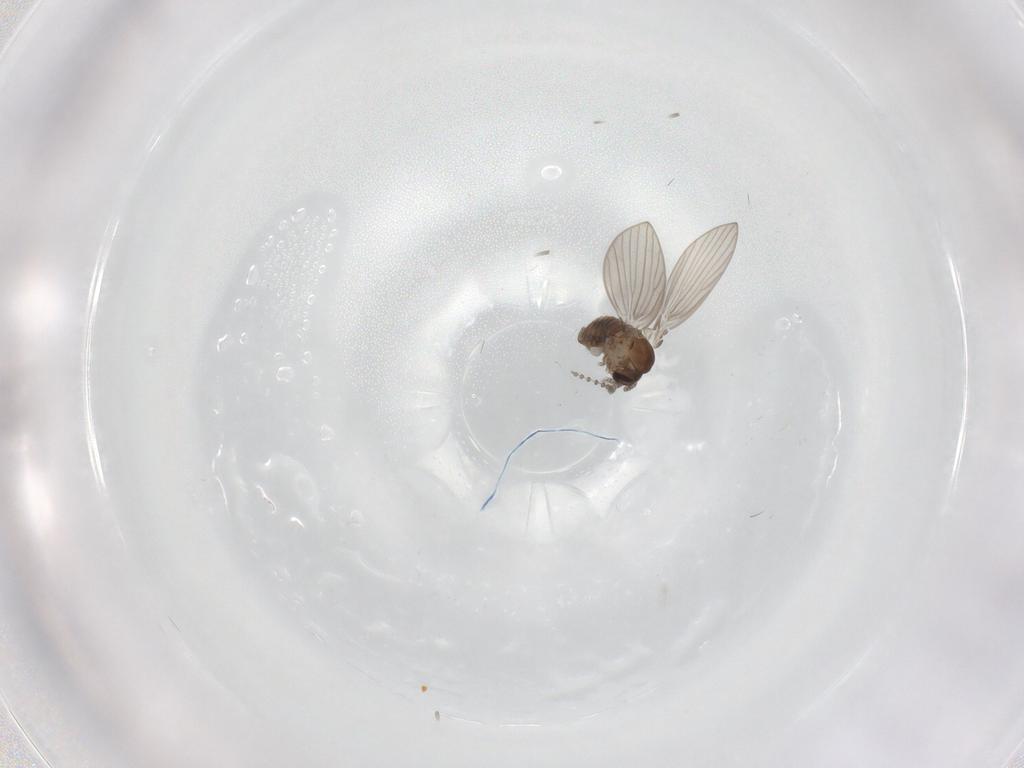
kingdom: Animalia
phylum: Arthropoda
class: Insecta
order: Diptera
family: Psychodidae
